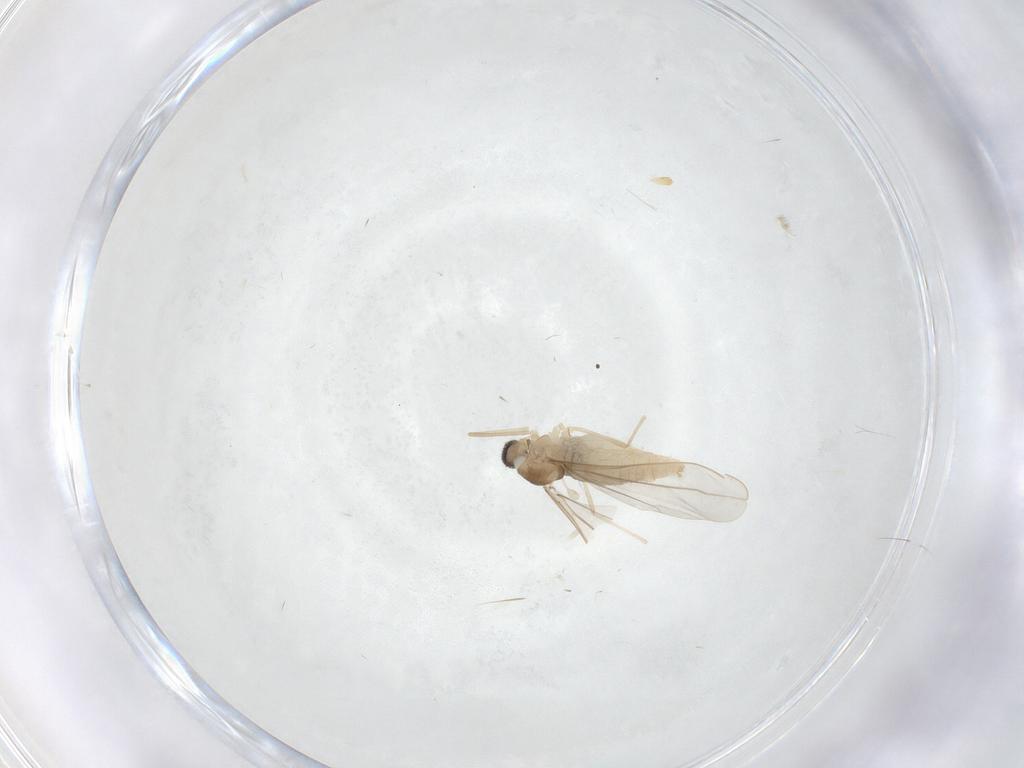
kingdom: Animalia
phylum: Arthropoda
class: Insecta
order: Diptera
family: Cecidomyiidae
